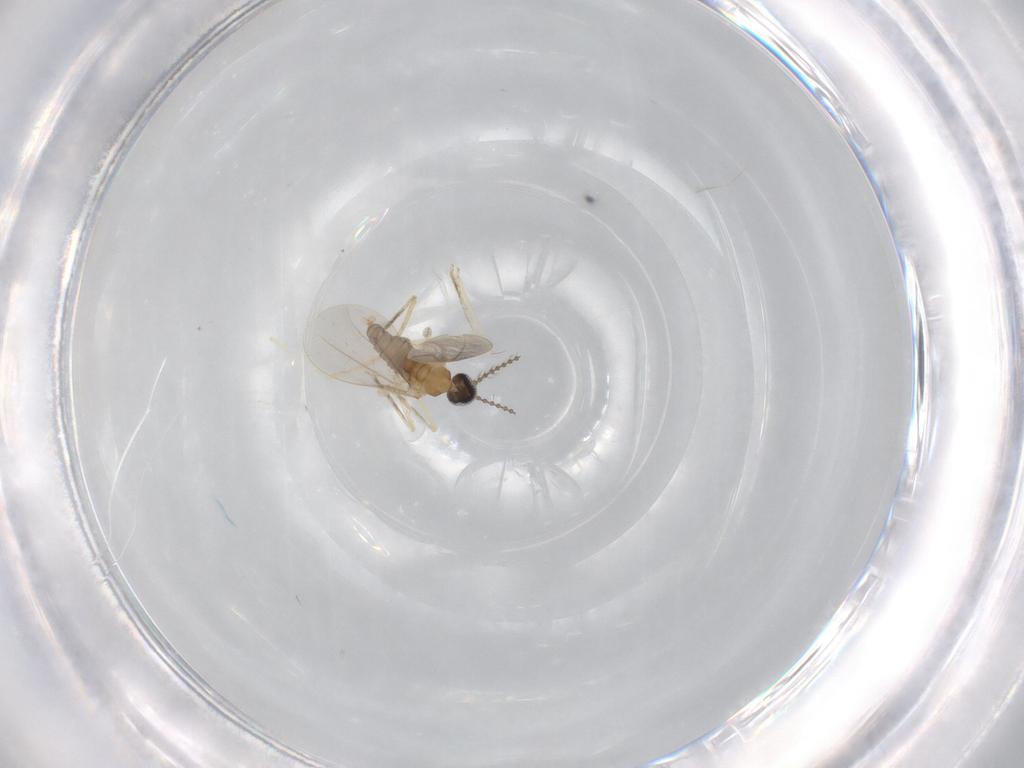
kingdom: Animalia
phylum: Arthropoda
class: Insecta
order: Diptera
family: Cecidomyiidae
